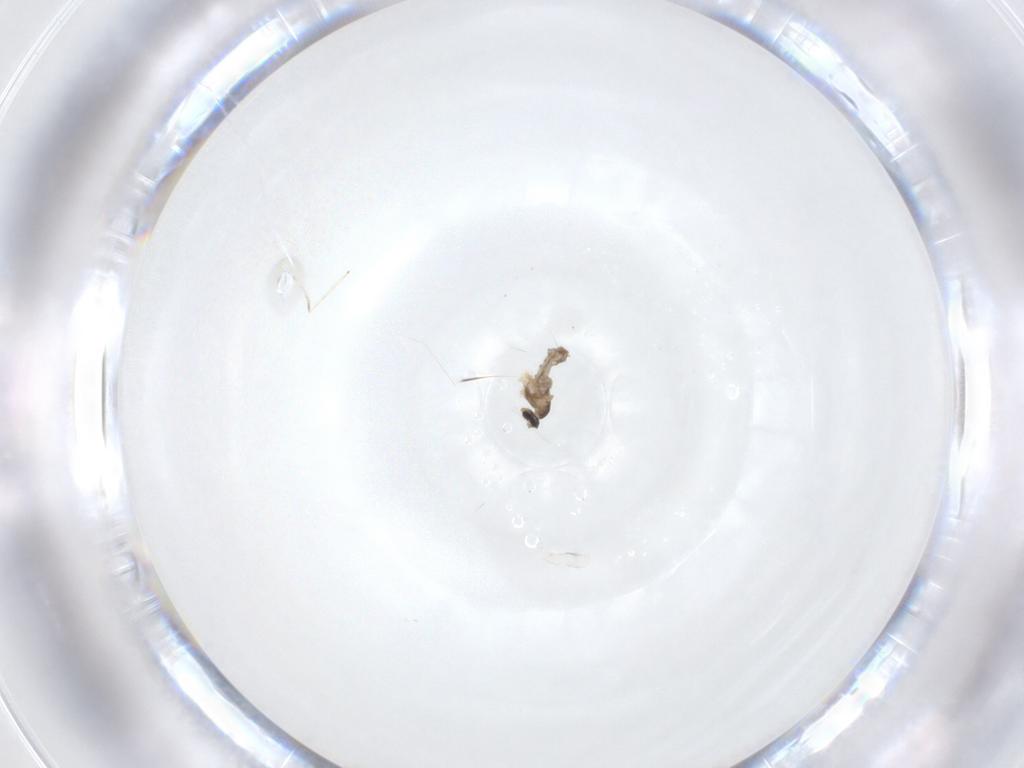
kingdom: Animalia
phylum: Arthropoda
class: Insecta
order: Diptera
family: Cecidomyiidae
